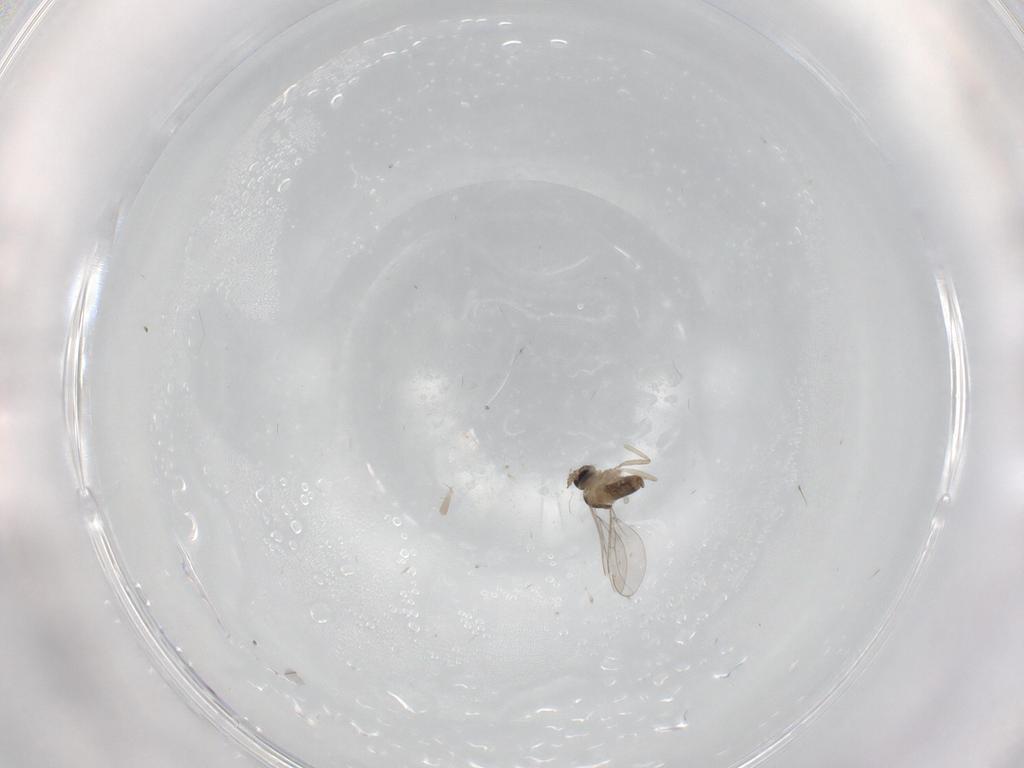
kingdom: Animalia
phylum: Arthropoda
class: Insecta
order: Diptera
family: Cecidomyiidae
